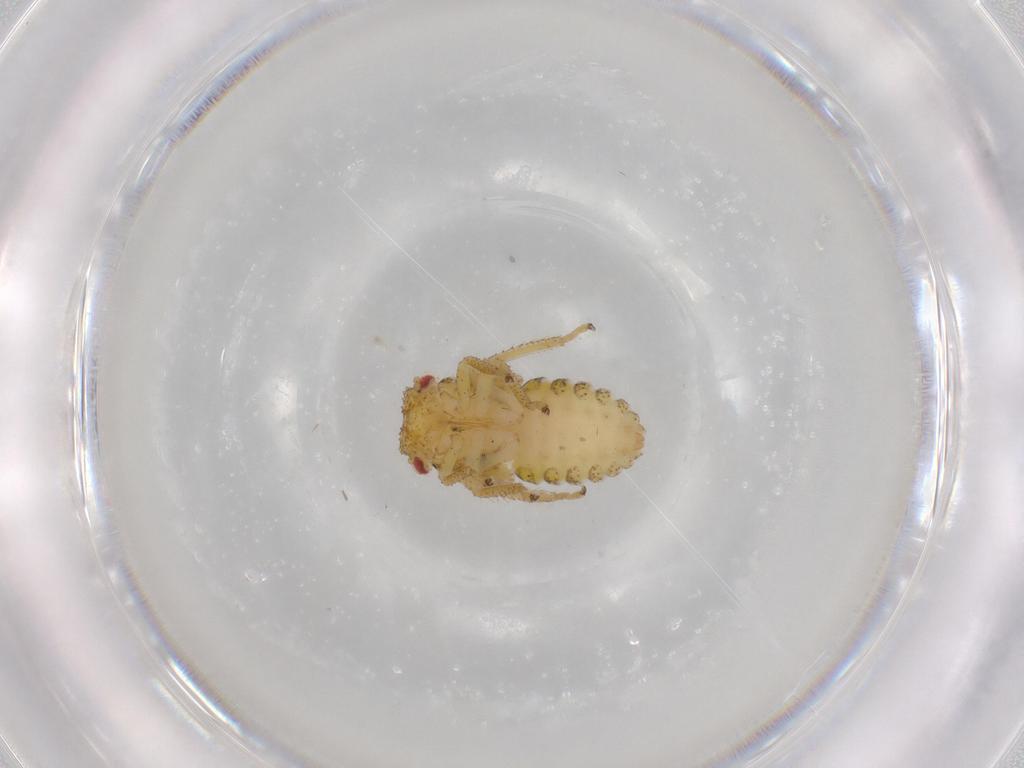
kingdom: Animalia
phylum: Arthropoda
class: Insecta
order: Hemiptera
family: Cicadellidae
